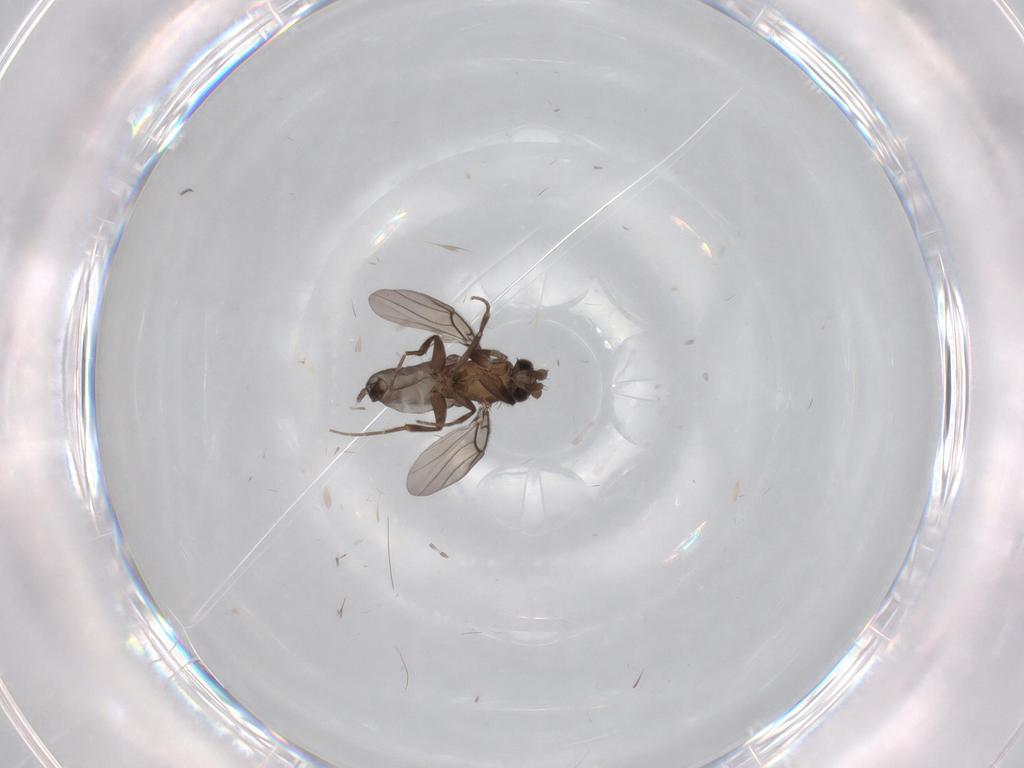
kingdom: Animalia
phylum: Arthropoda
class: Insecta
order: Diptera
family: Phoridae
